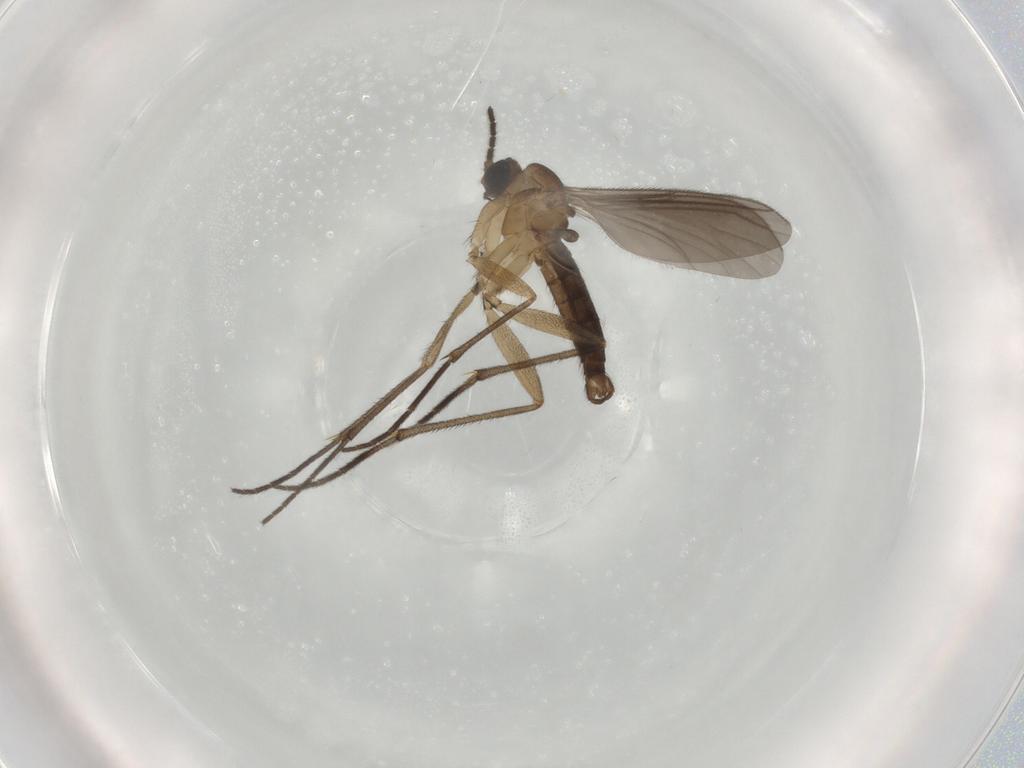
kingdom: Animalia
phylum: Arthropoda
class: Insecta
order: Diptera
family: Sciaridae
